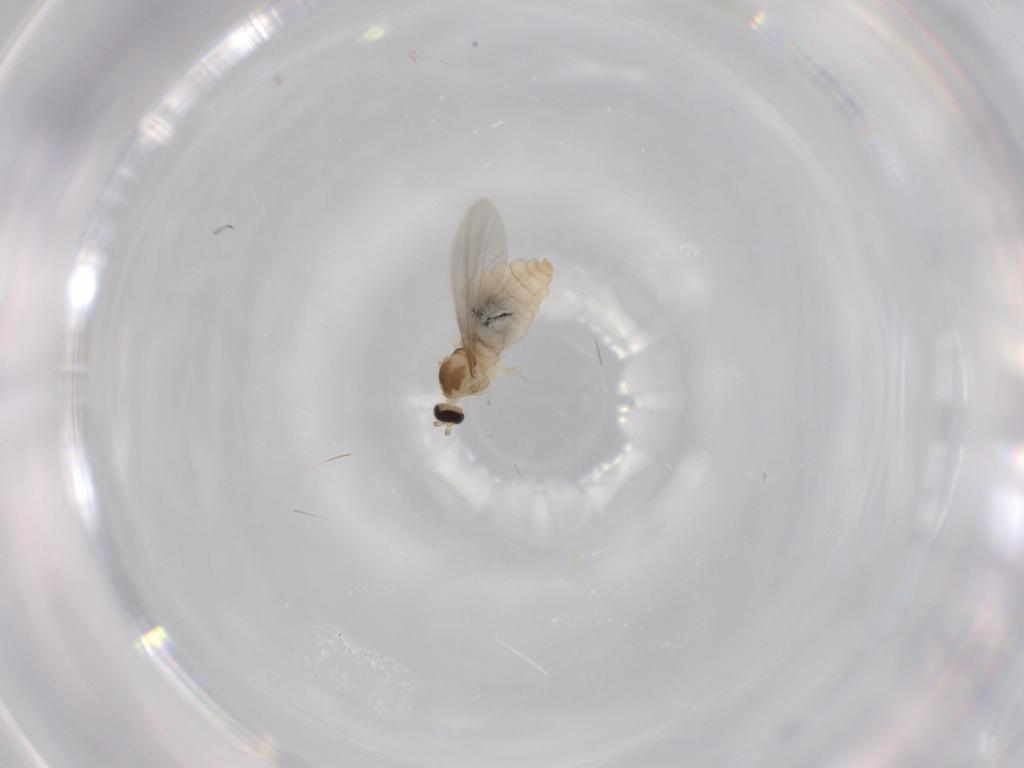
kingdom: Animalia
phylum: Arthropoda
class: Insecta
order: Diptera
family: Cecidomyiidae
